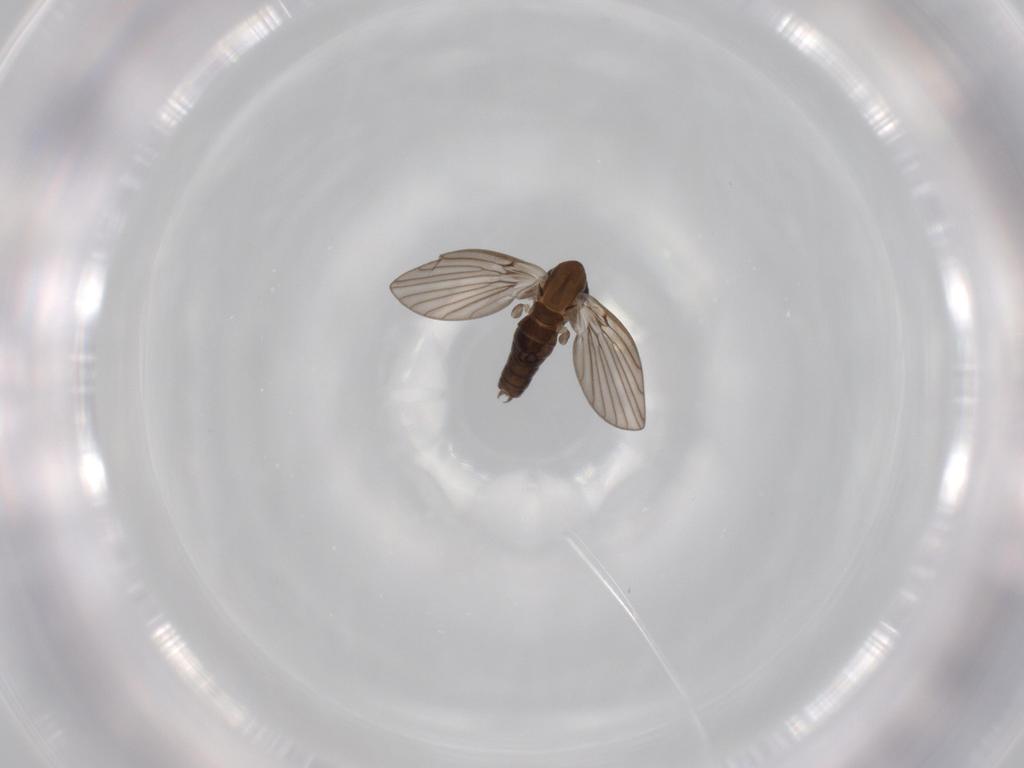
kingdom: Animalia
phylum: Arthropoda
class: Insecta
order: Diptera
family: Psychodidae
